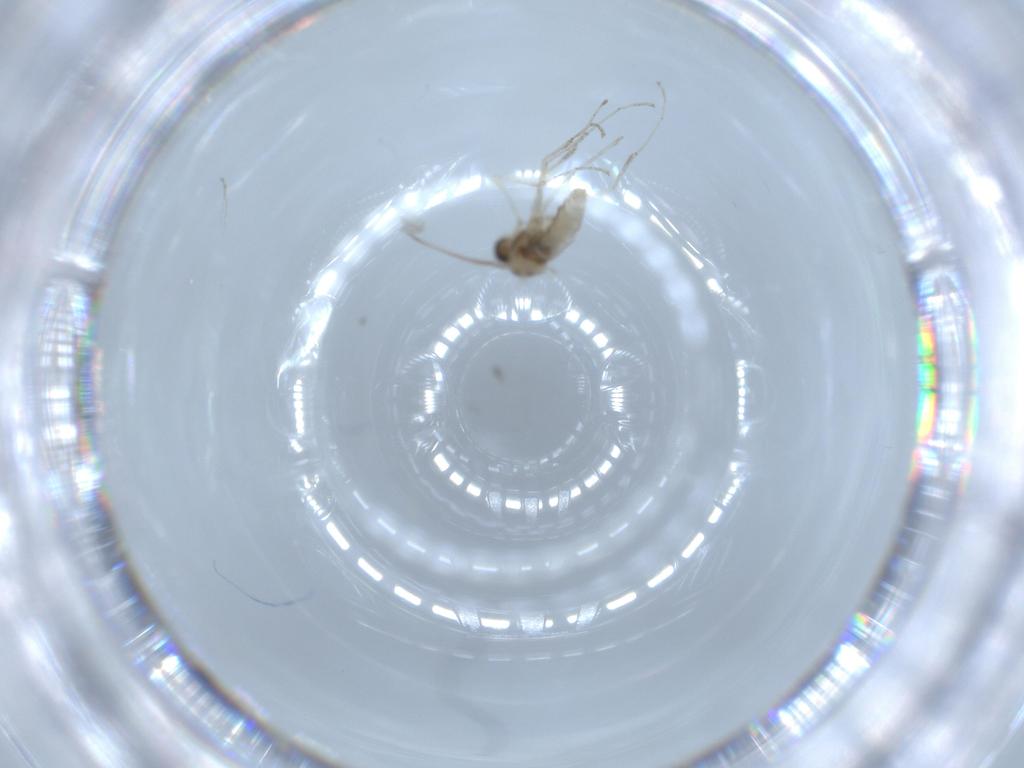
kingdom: Animalia
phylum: Arthropoda
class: Insecta
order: Diptera
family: Cecidomyiidae
